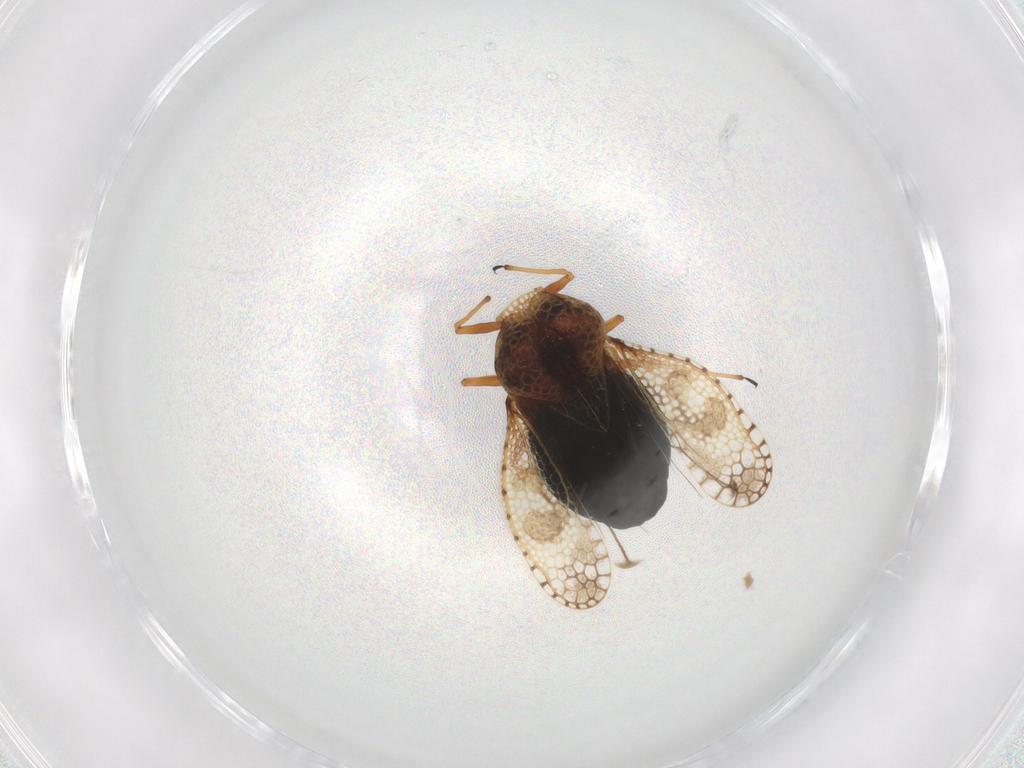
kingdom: Animalia
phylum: Arthropoda
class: Insecta
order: Hemiptera
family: Tingidae
